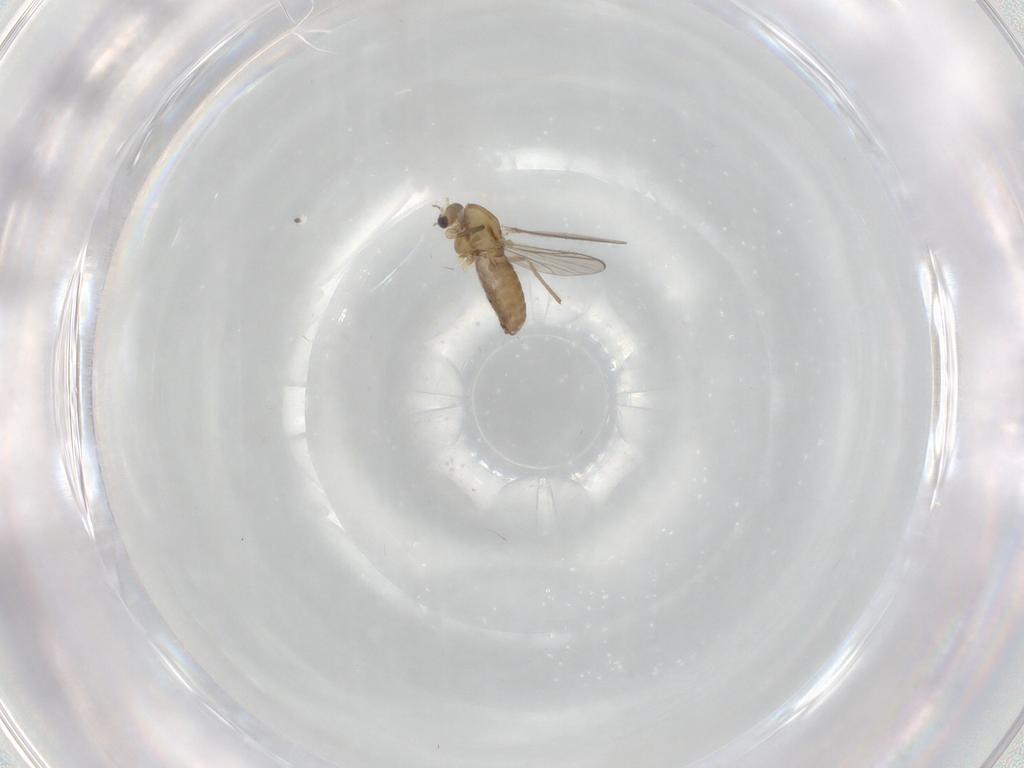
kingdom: Animalia
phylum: Arthropoda
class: Insecta
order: Diptera
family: Chironomidae
